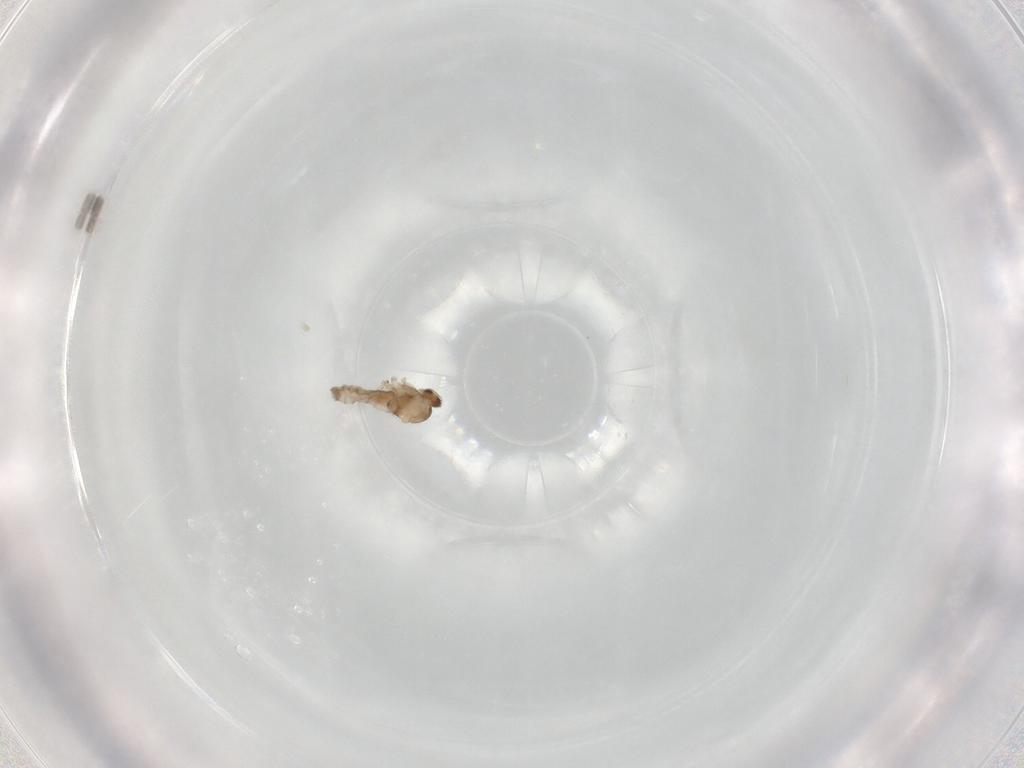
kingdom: Animalia
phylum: Arthropoda
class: Insecta
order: Diptera
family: Cecidomyiidae
